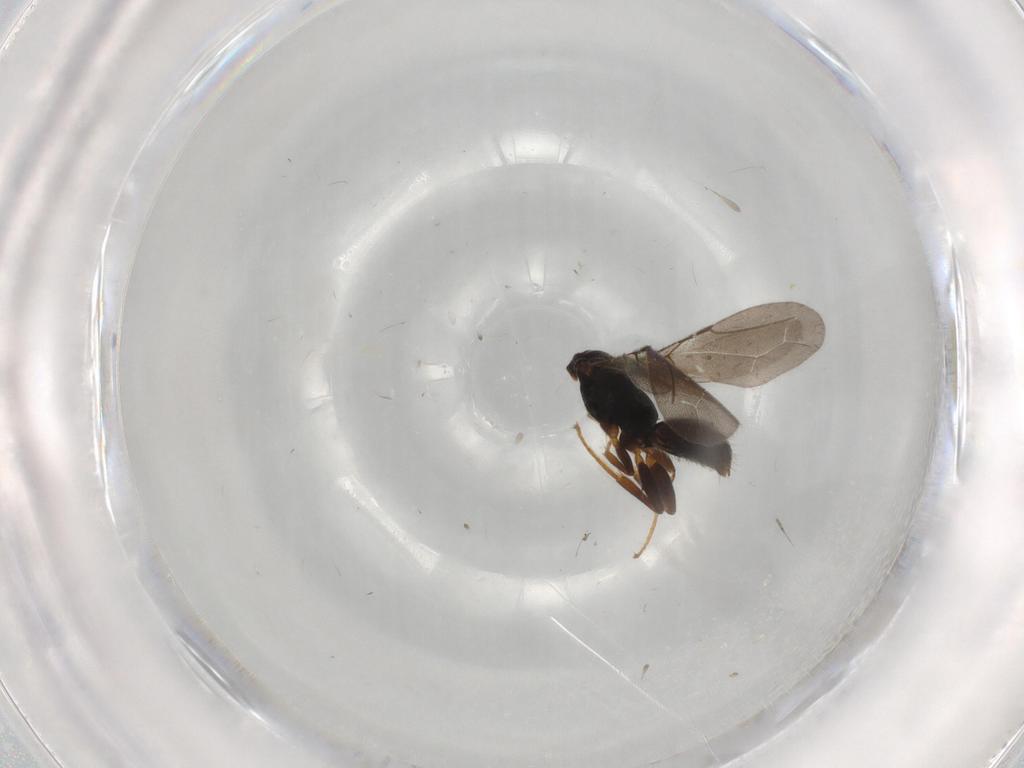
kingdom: Animalia
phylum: Arthropoda
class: Insecta
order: Hymenoptera
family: Bethylidae
